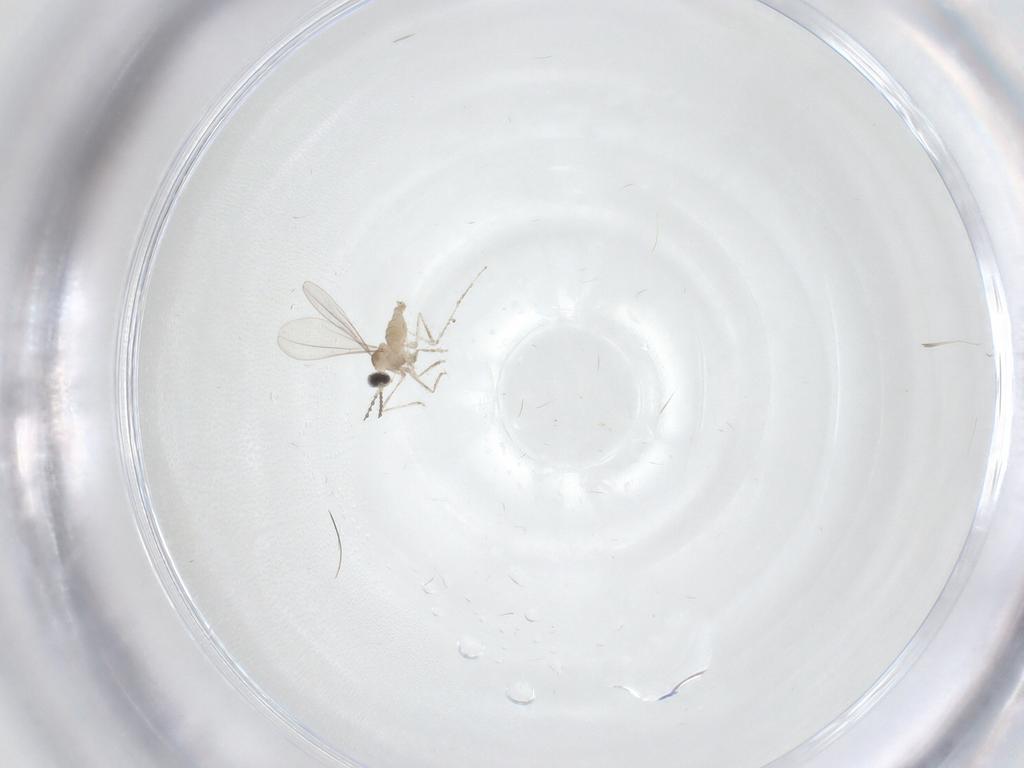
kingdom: Animalia
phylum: Arthropoda
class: Insecta
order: Diptera
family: Cecidomyiidae
